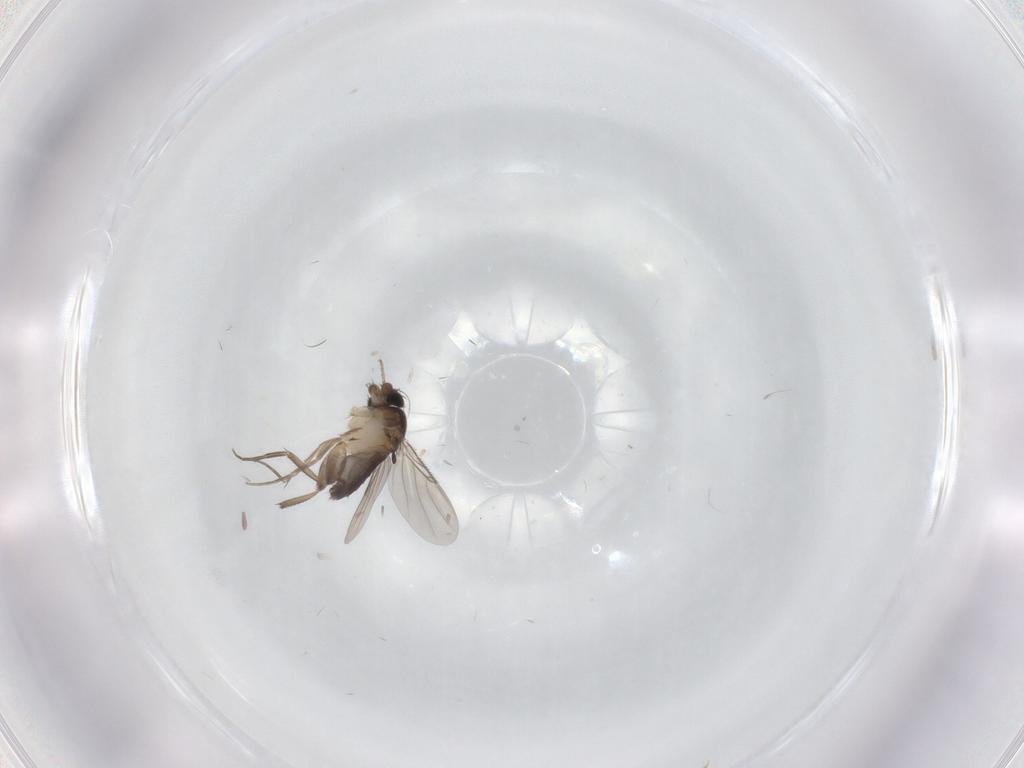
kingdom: Animalia
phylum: Arthropoda
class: Insecta
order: Diptera
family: Phoridae
